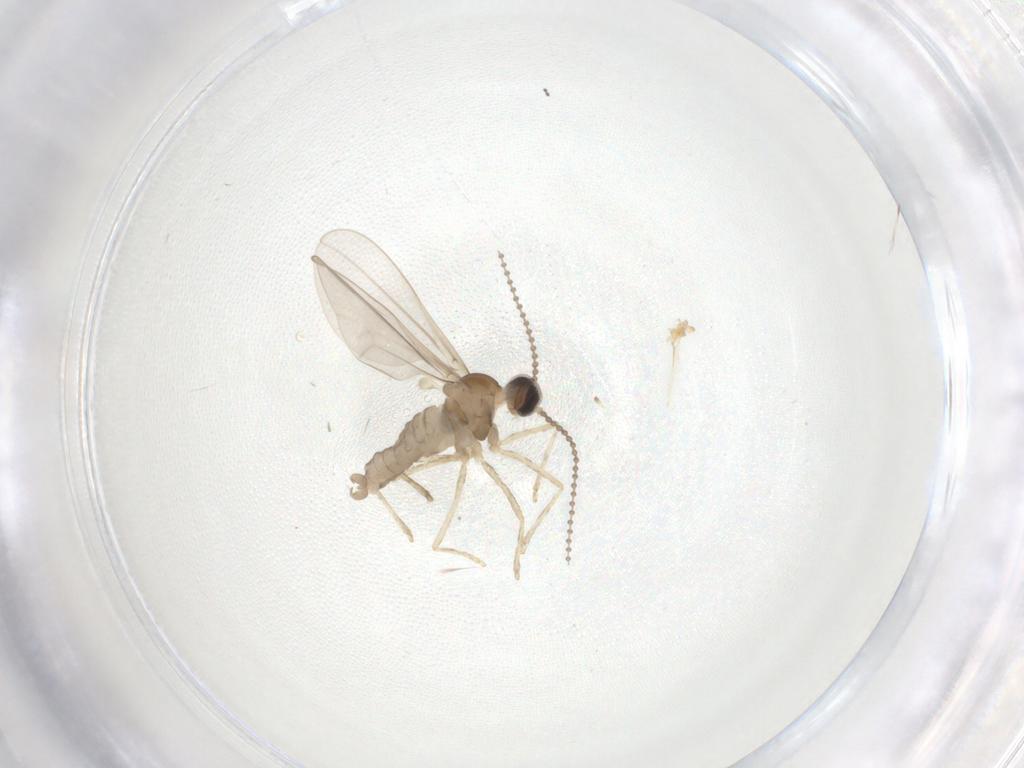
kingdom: Animalia
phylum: Arthropoda
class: Insecta
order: Diptera
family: Cecidomyiidae
